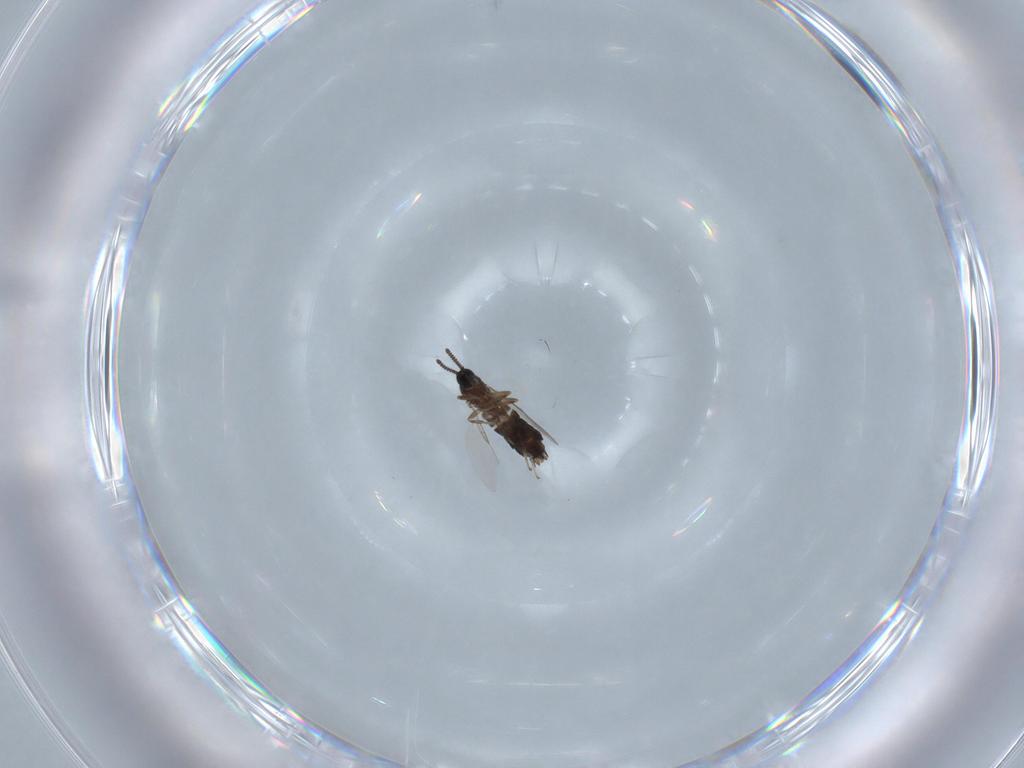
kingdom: Animalia
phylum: Arthropoda
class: Insecta
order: Diptera
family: Scatopsidae
